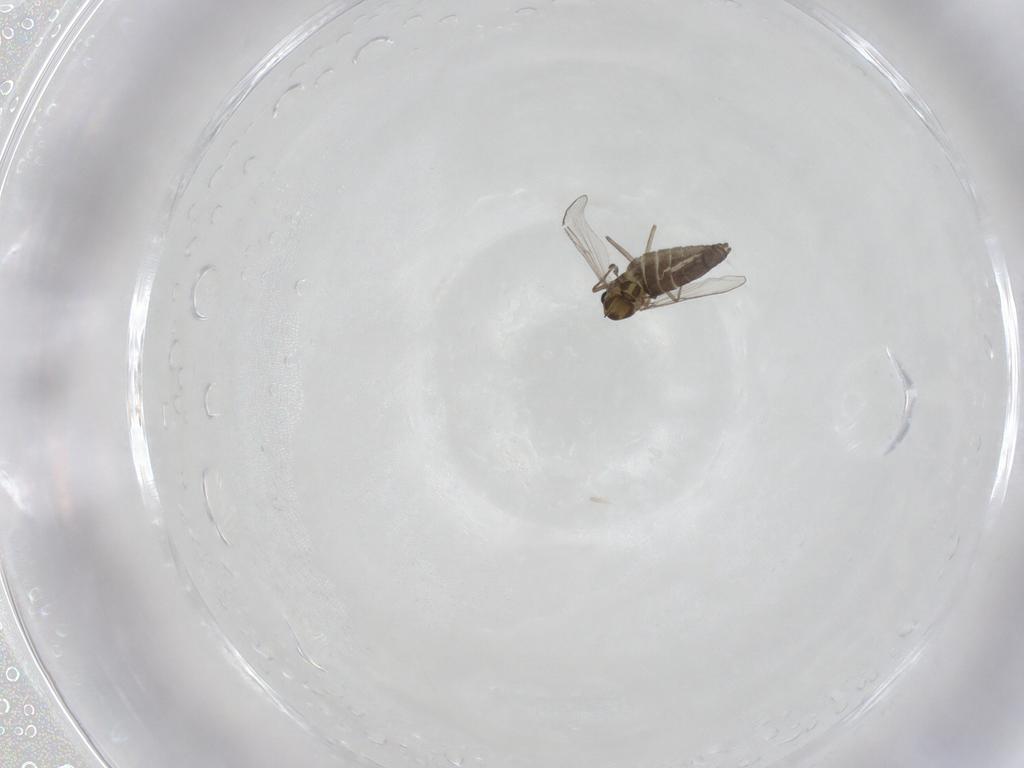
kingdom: Animalia
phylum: Arthropoda
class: Insecta
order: Diptera
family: Chironomidae
